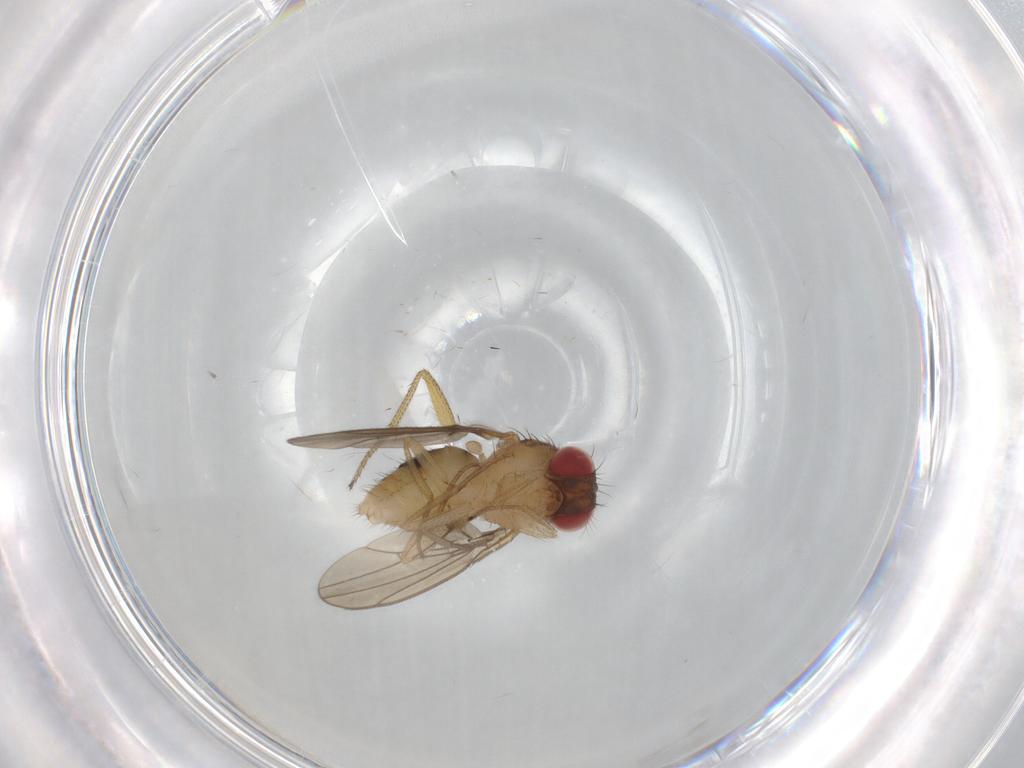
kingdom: Animalia
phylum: Arthropoda
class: Insecta
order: Diptera
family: Drosophilidae
